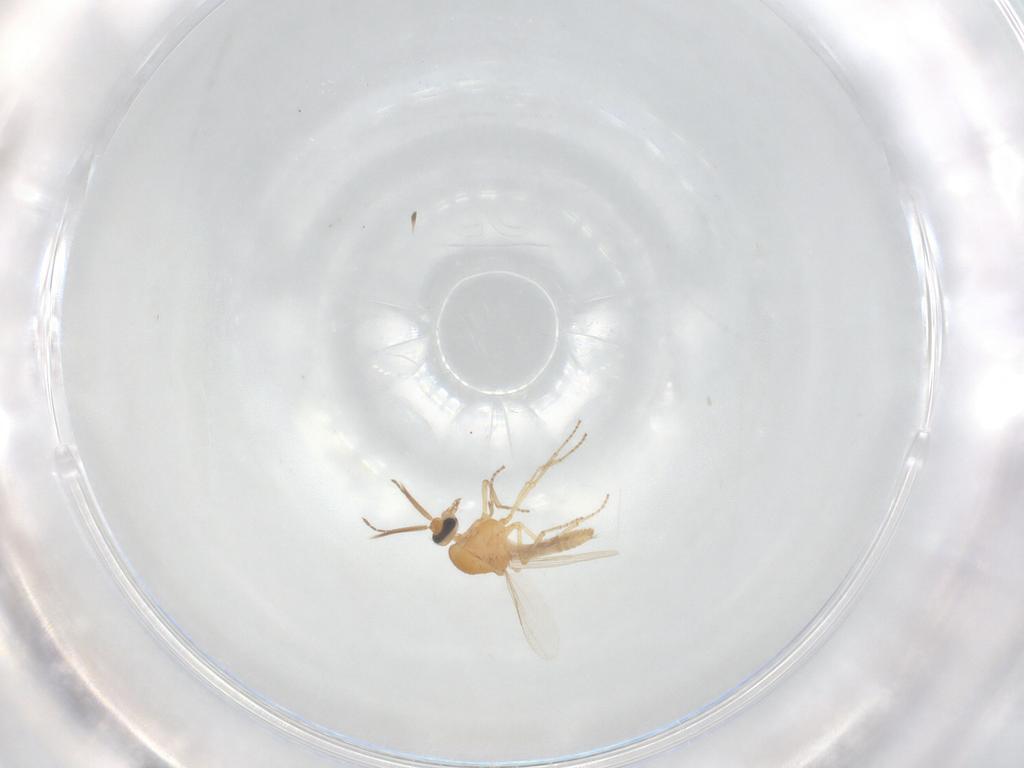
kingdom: Animalia
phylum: Arthropoda
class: Insecta
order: Diptera
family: Ceratopogonidae
